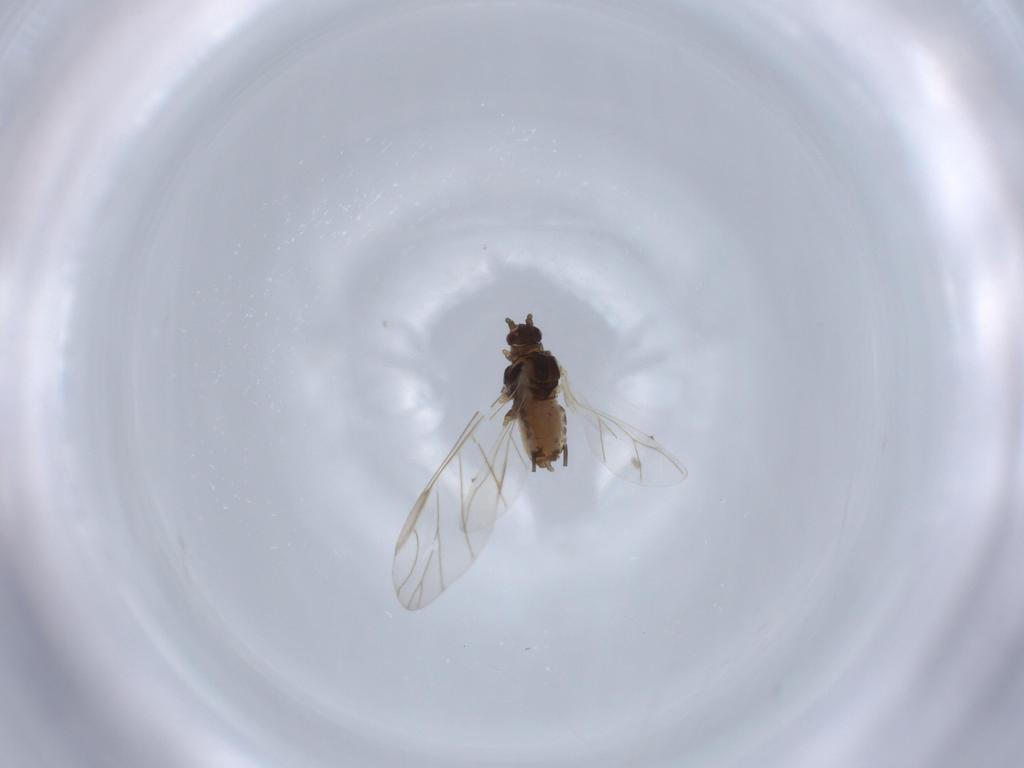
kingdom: Animalia
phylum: Arthropoda
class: Insecta
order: Hemiptera
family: Aphididae
